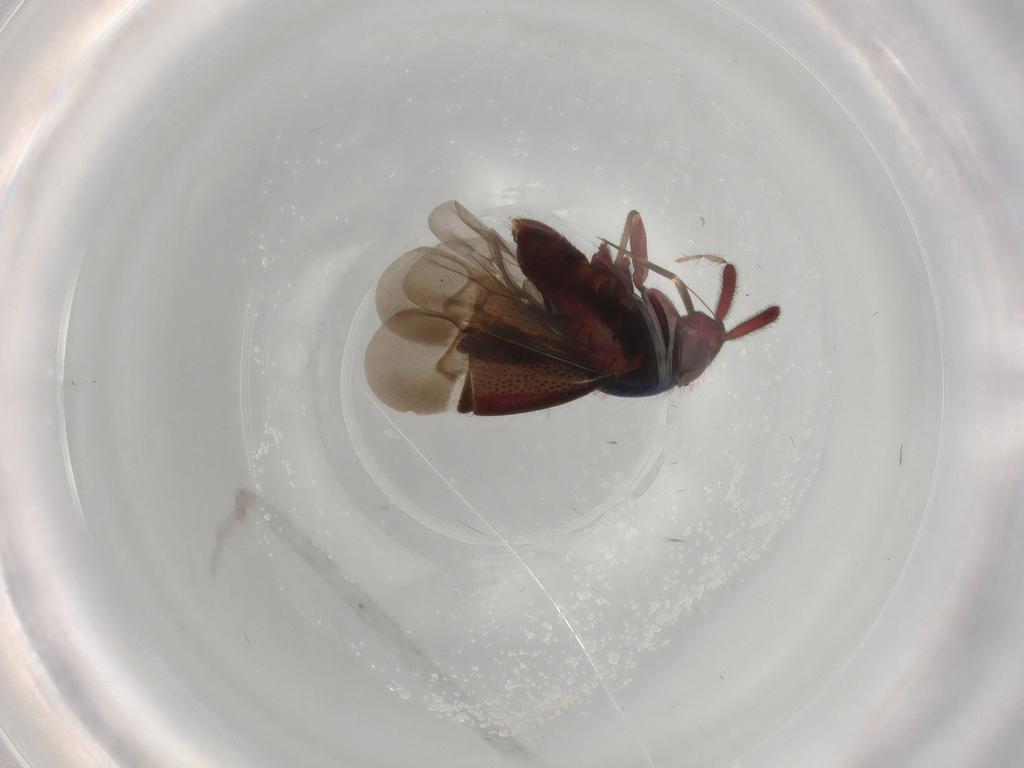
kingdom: Animalia
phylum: Arthropoda
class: Insecta
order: Hemiptera
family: Miridae
